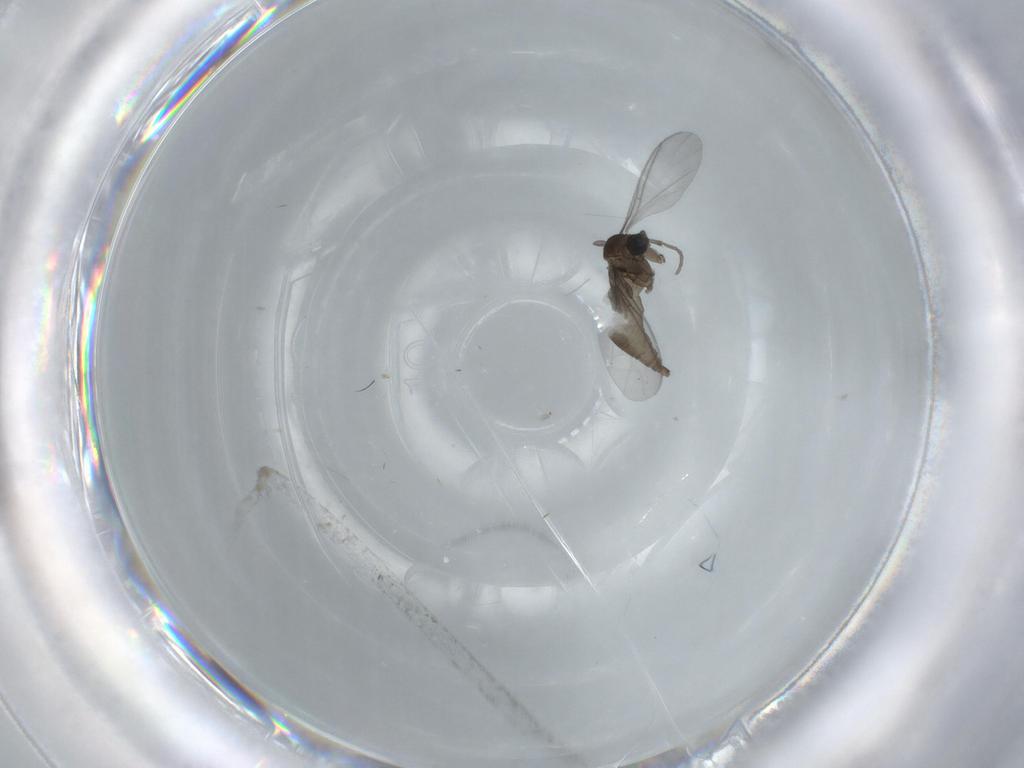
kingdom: Animalia
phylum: Arthropoda
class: Insecta
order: Diptera
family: Sciaridae
